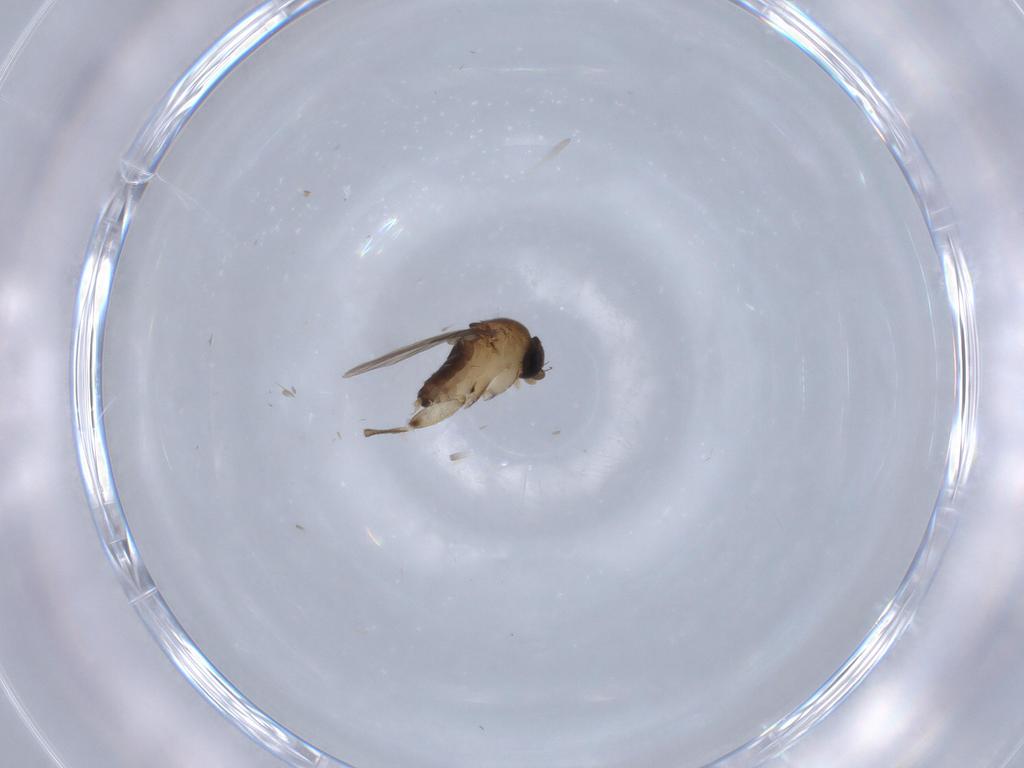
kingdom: Animalia
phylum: Arthropoda
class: Insecta
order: Diptera
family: Phoridae
